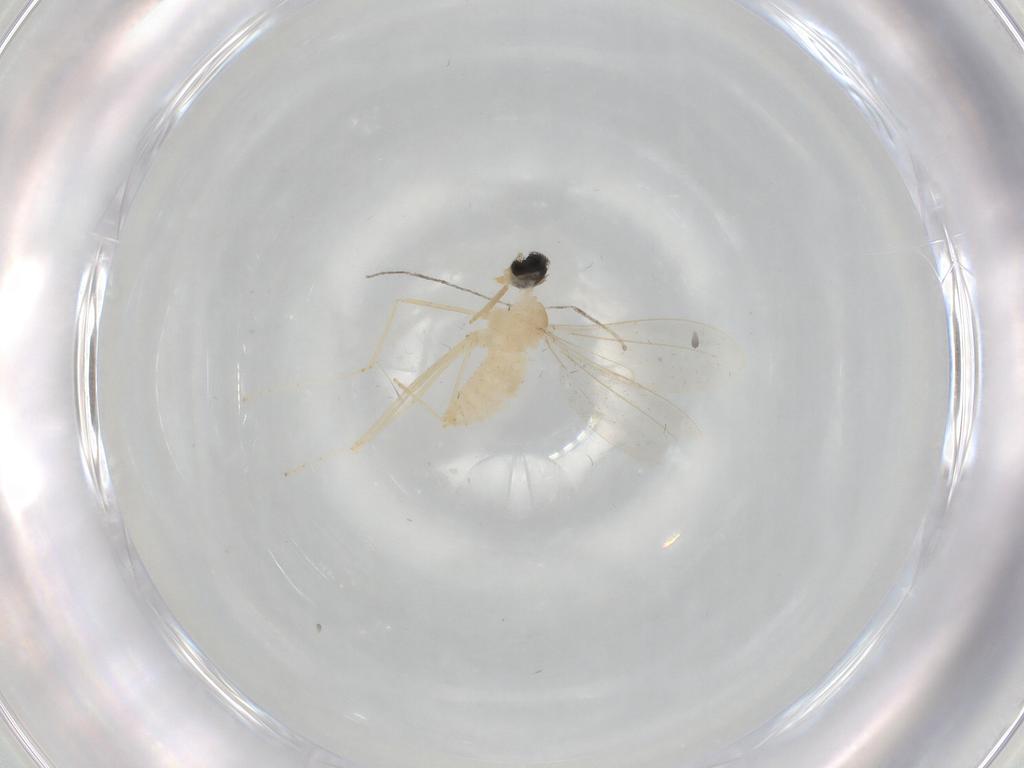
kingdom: Animalia
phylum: Arthropoda
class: Insecta
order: Diptera
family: Cecidomyiidae
